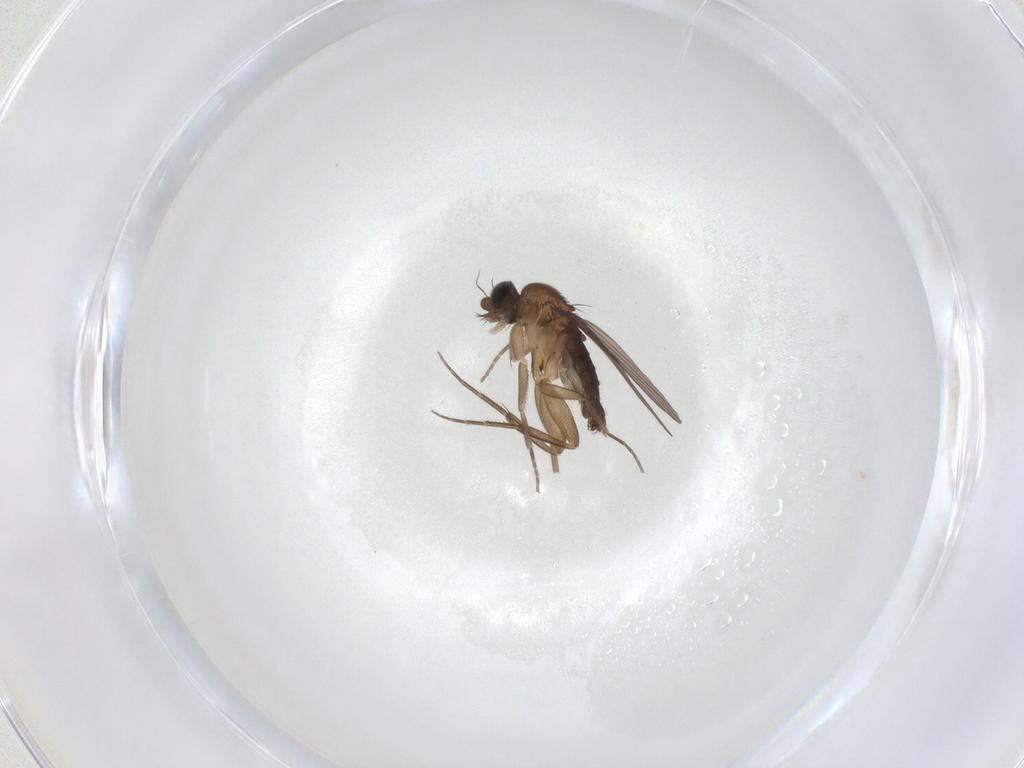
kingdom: Animalia
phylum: Arthropoda
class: Insecta
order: Diptera
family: Phoridae
